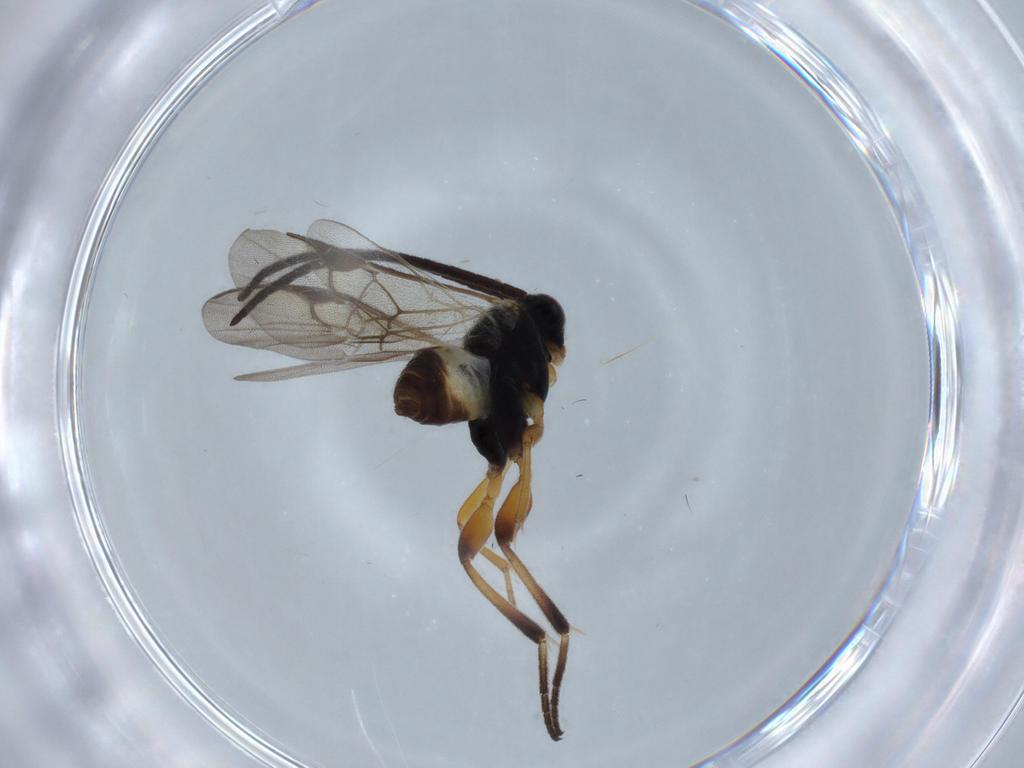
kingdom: Animalia
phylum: Arthropoda
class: Insecta
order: Hymenoptera
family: Braconidae
